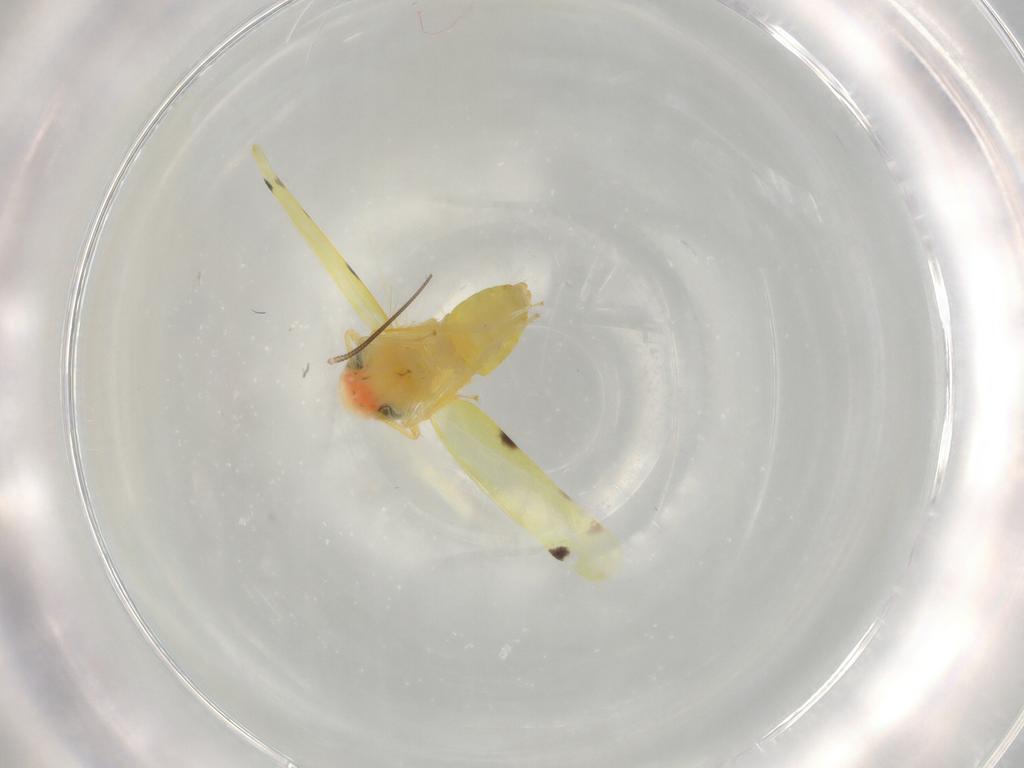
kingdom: Animalia
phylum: Arthropoda
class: Insecta
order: Hemiptera
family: Cicadellidae
